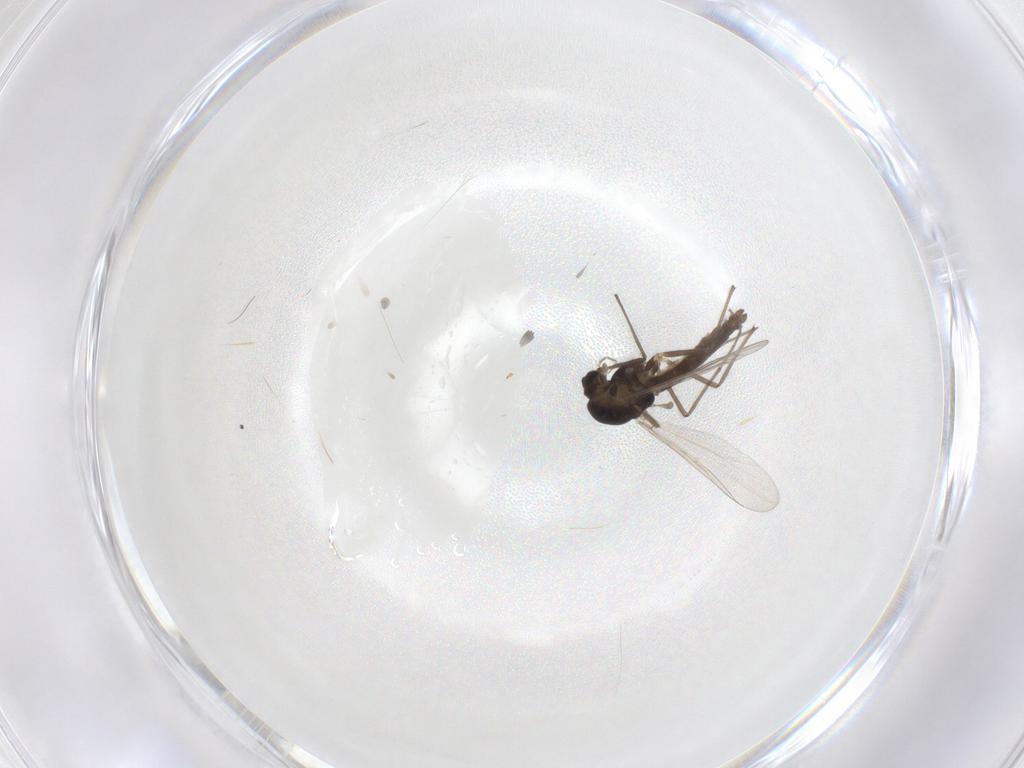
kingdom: Animalia
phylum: Arthropoda
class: Insecta
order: Diptera
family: Chironomidae
